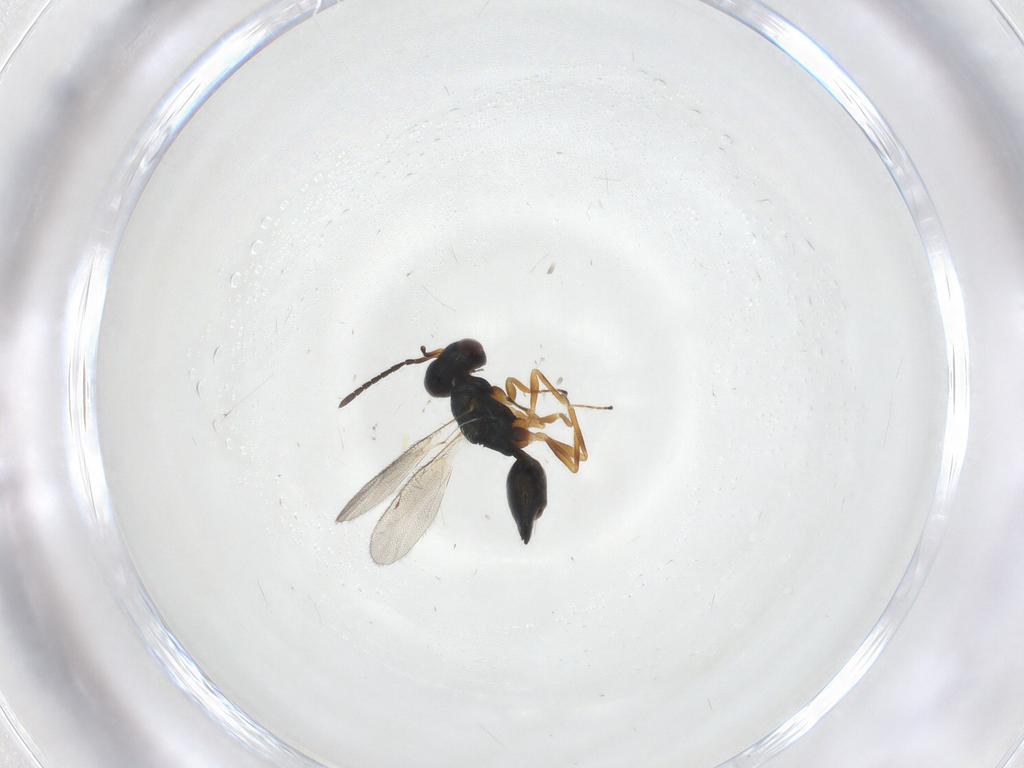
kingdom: Animalia
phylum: Arthropoda
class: Insecta
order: Hymenoptera
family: Pteromalidae
